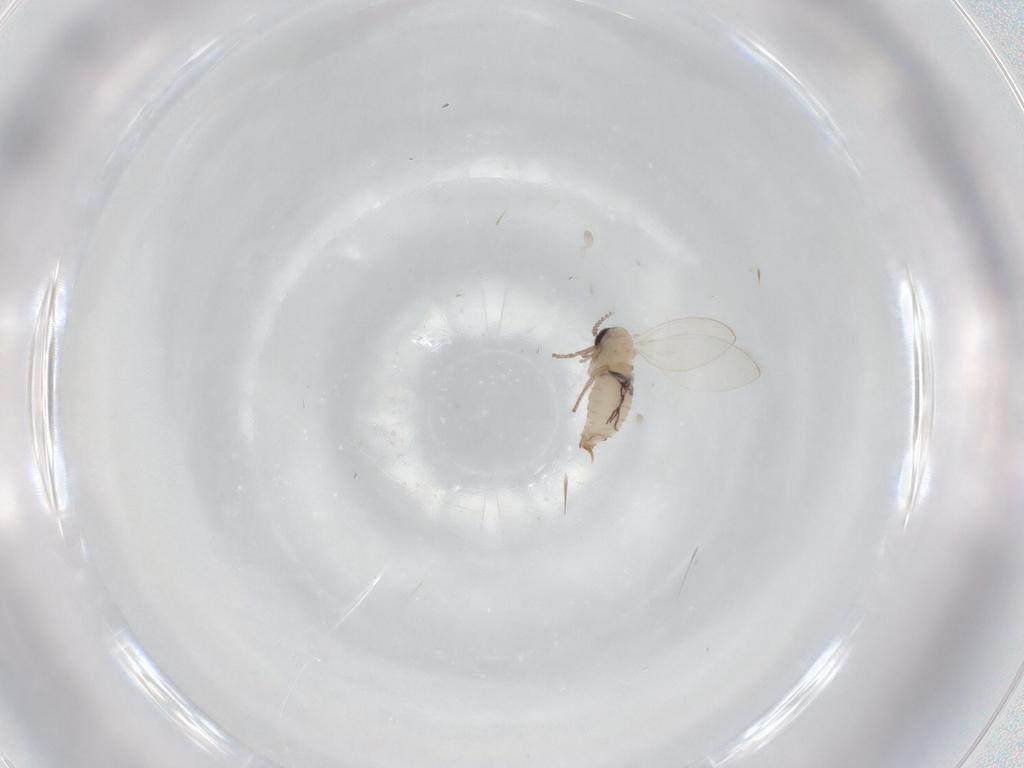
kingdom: Animalia
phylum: Arthropoda
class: Insecta
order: Diptera
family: Psychodidae
